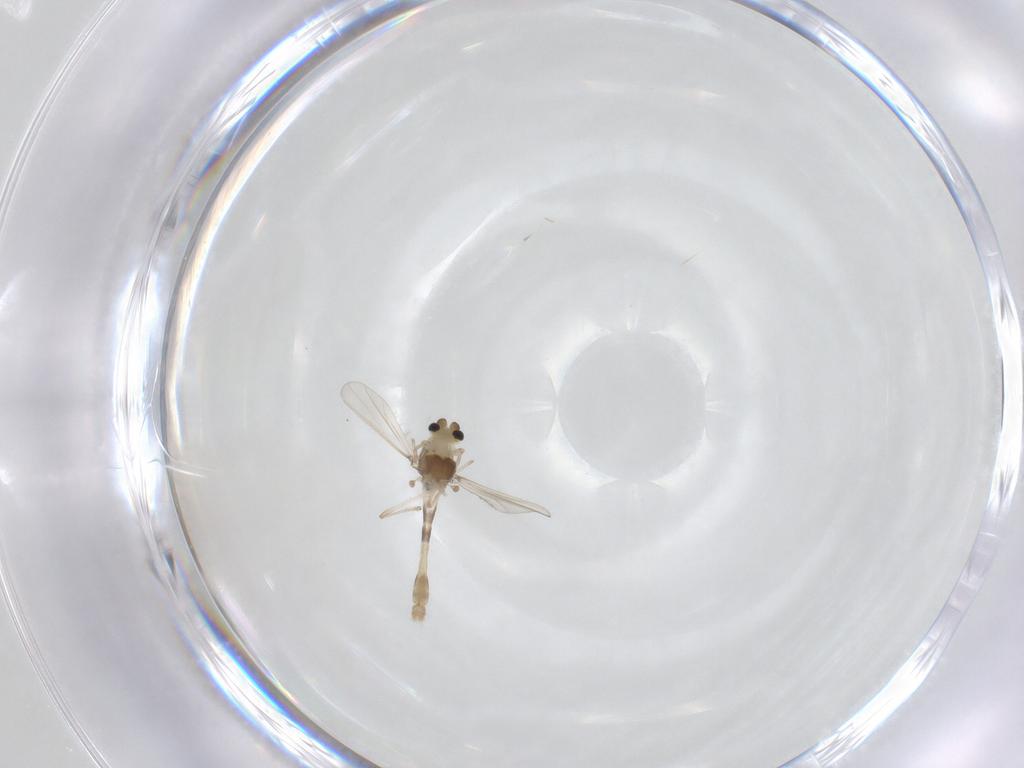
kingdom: Animalia
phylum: Arthropoda
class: Insecta
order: Diptera
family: Chironomidae
